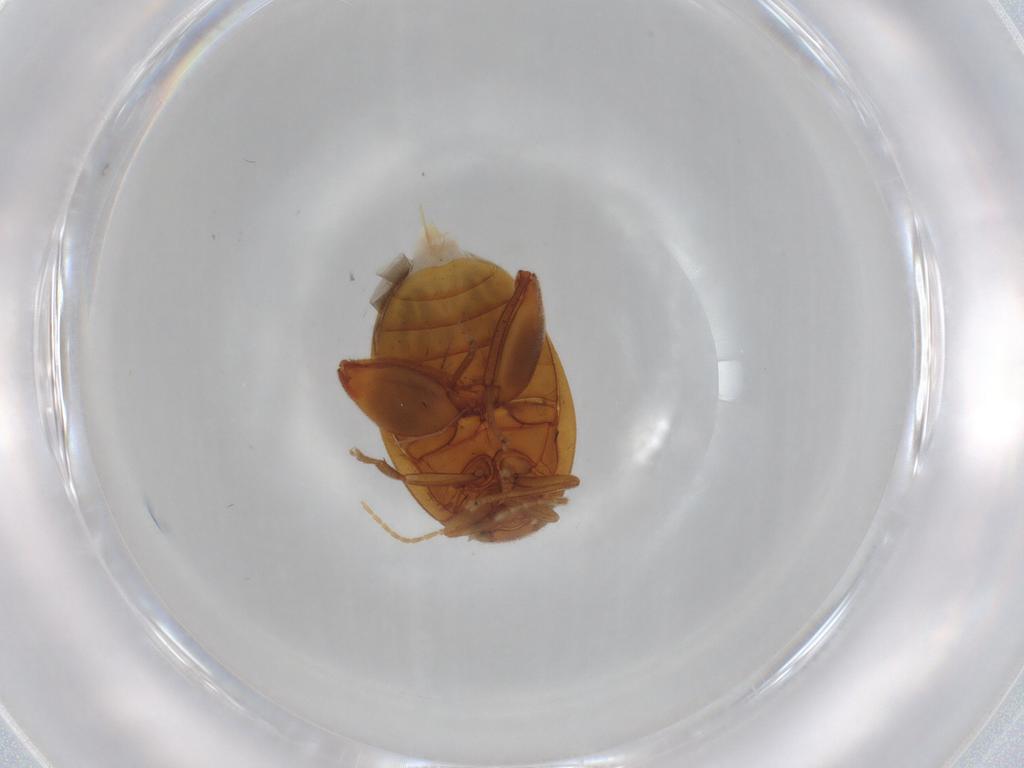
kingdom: Animalia
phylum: Arthropoda
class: Insecta
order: Coleoptera
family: Scirtidae
